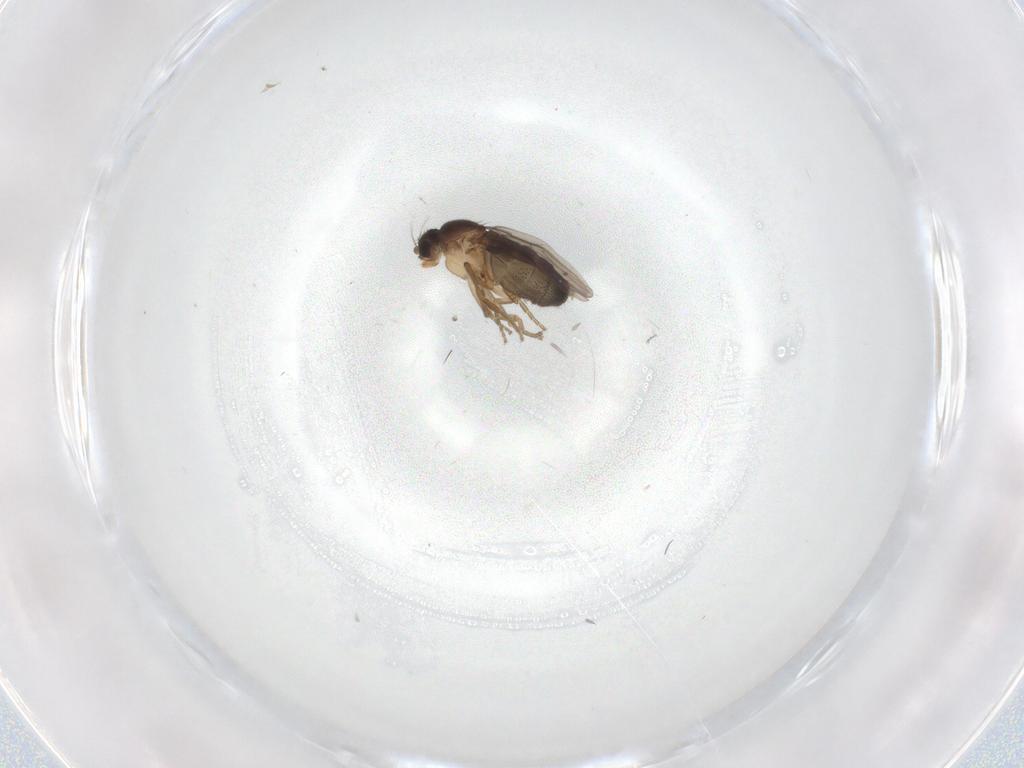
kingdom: Animalia
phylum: Arthropoda
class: Insecta
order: Diptera
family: Phoridae
